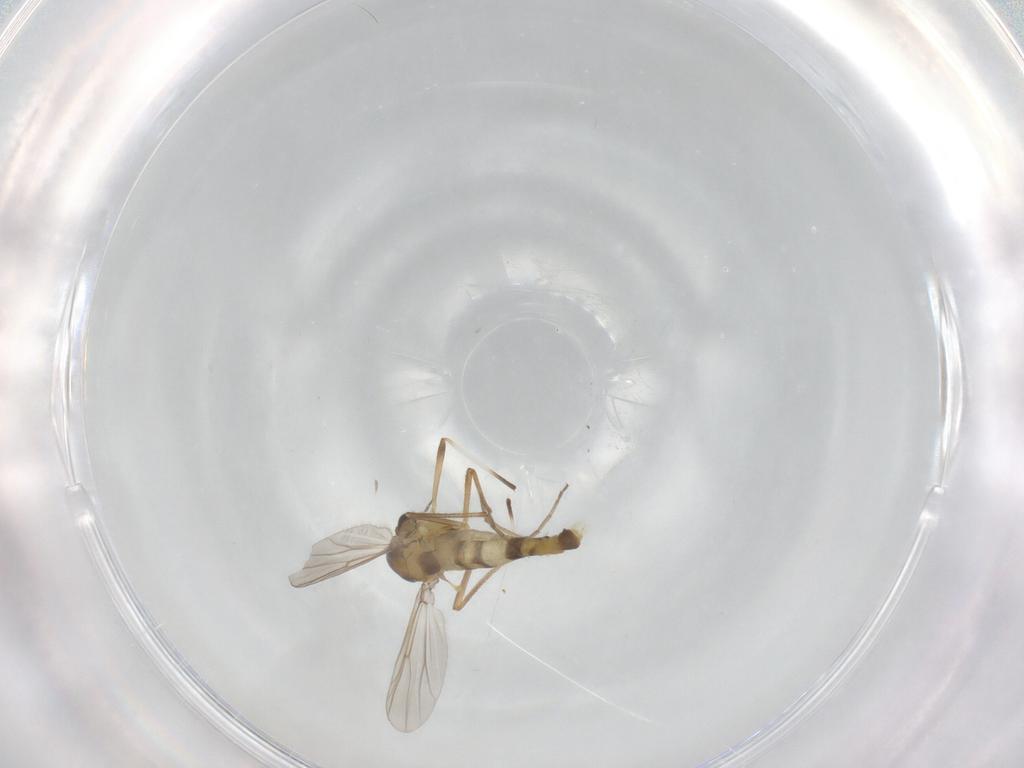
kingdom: Animalia
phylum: Arthropoda
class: Insecta
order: Diptera
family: Chironomidae
